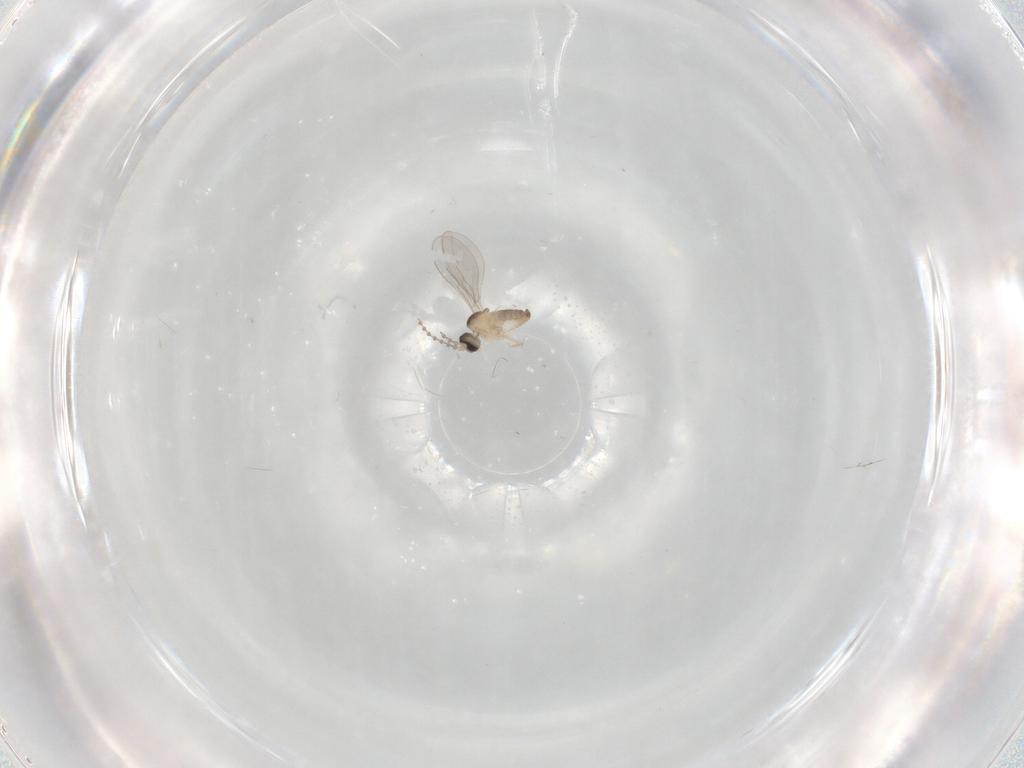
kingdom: Animalia
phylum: Arthropoda
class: Insecta
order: Diptera
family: Cecidomyiidae
